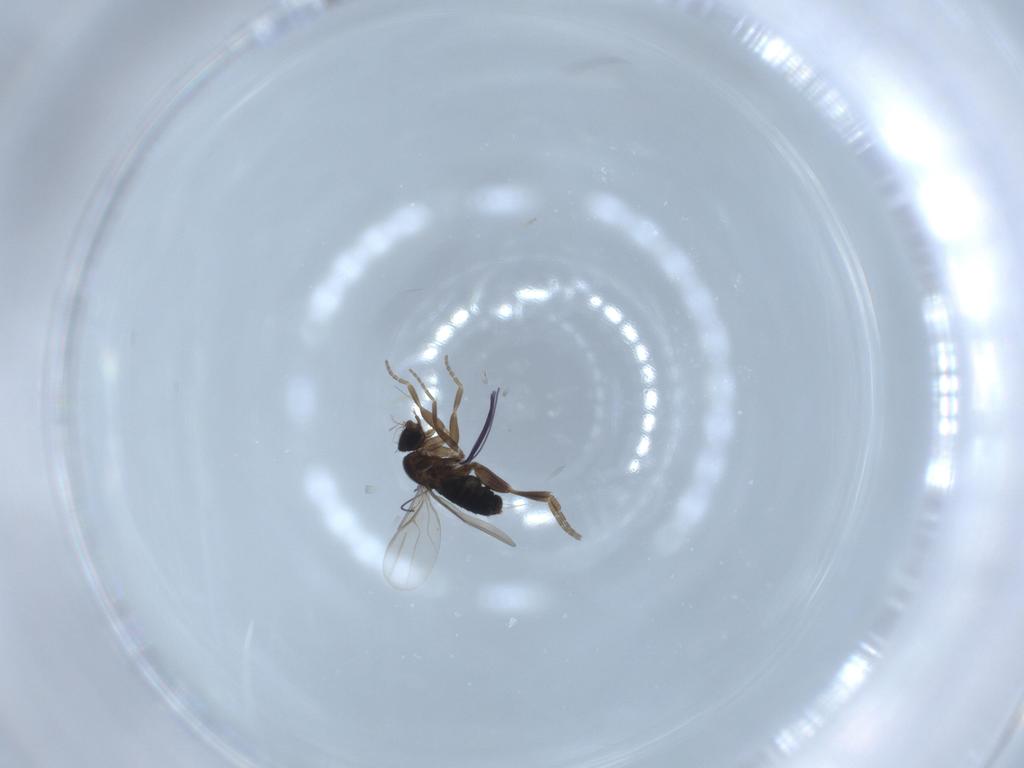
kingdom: Animalia
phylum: Arthropoda
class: Insecta
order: Diptera
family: Phoridae
